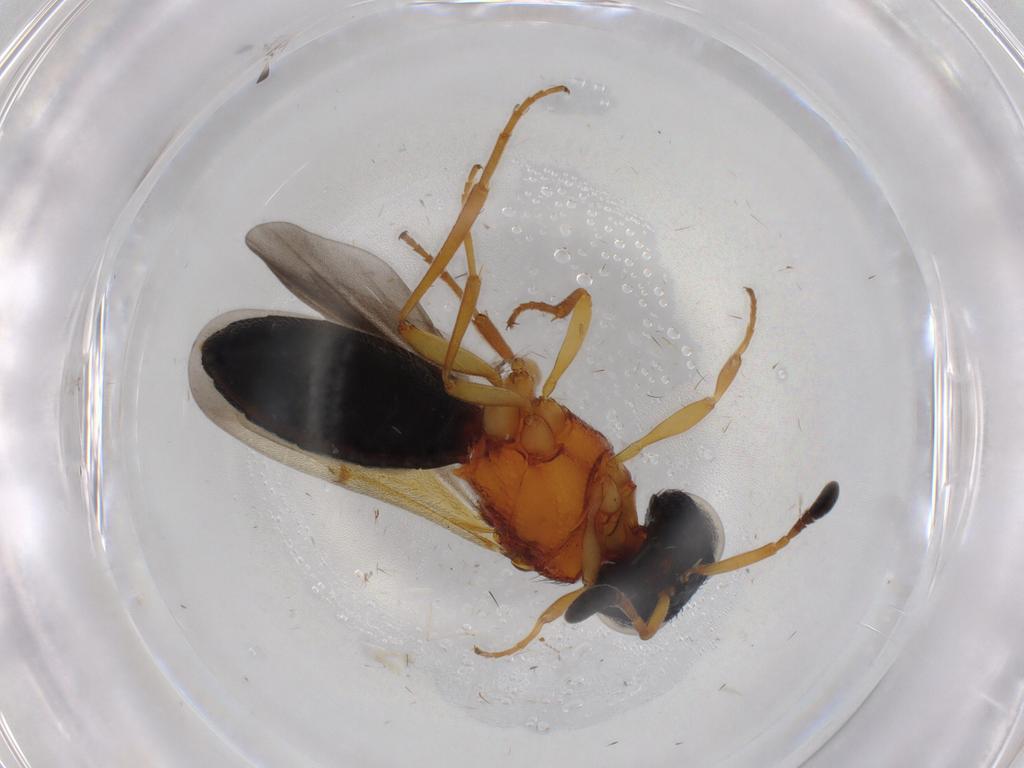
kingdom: Animalia
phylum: Arthropoda
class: Insecta
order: Hymenoptera
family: Scelionidae
